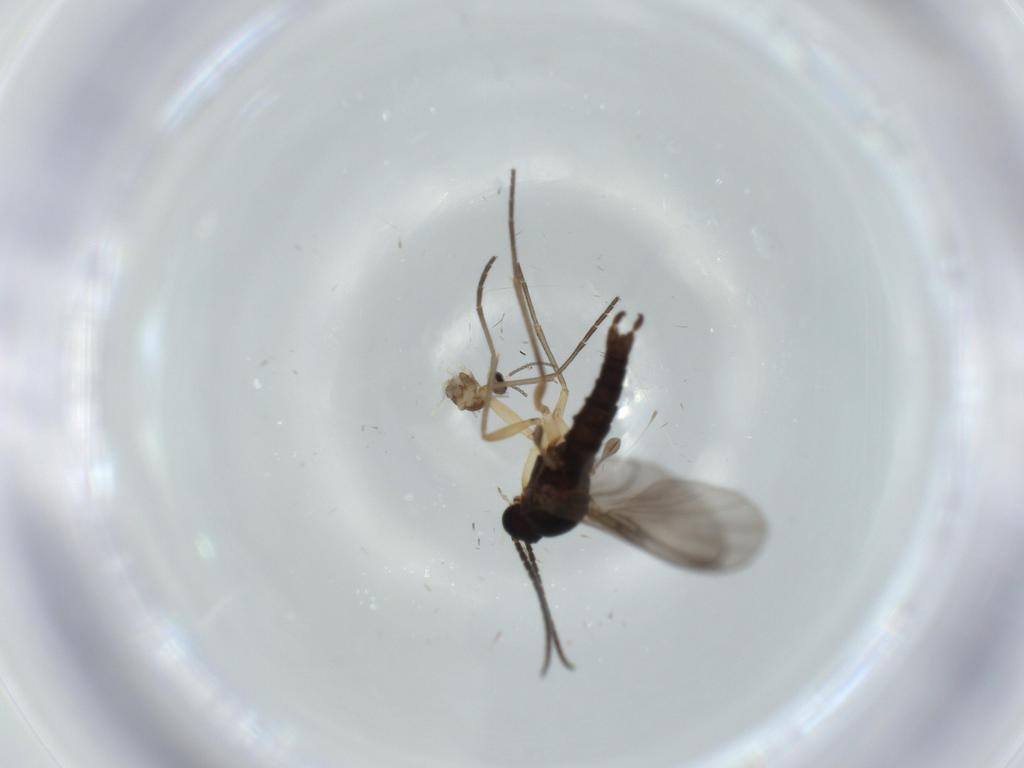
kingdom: Animalia
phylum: Arthropoda
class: Insecta
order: Diptera
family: Sciaridae
